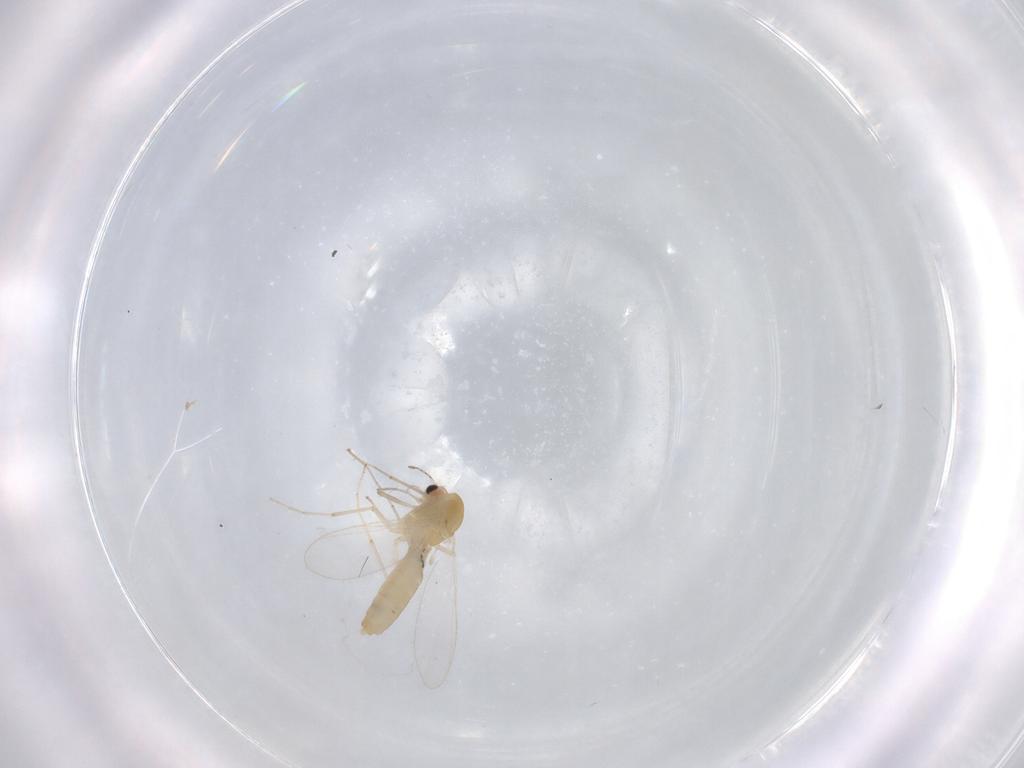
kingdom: Animalia
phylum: Arthropoda
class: Insecta
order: Diptera
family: Chironomidae
